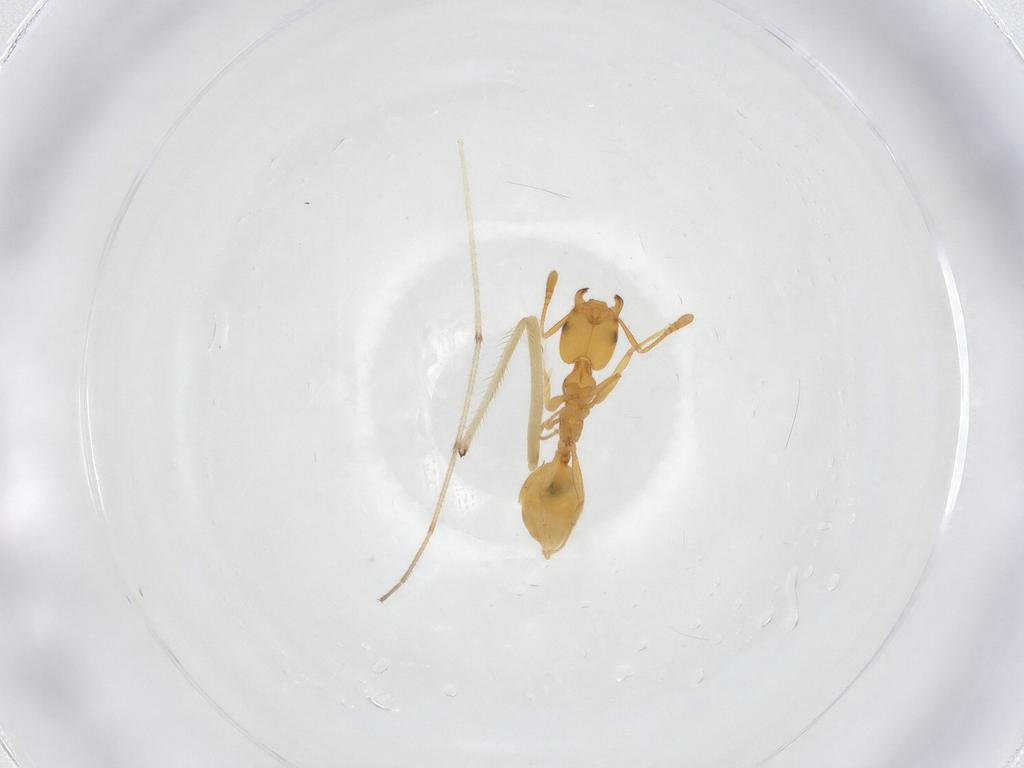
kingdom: Animalia
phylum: Arthropoda
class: Insecta
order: Hymenoptera
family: Formicidae
